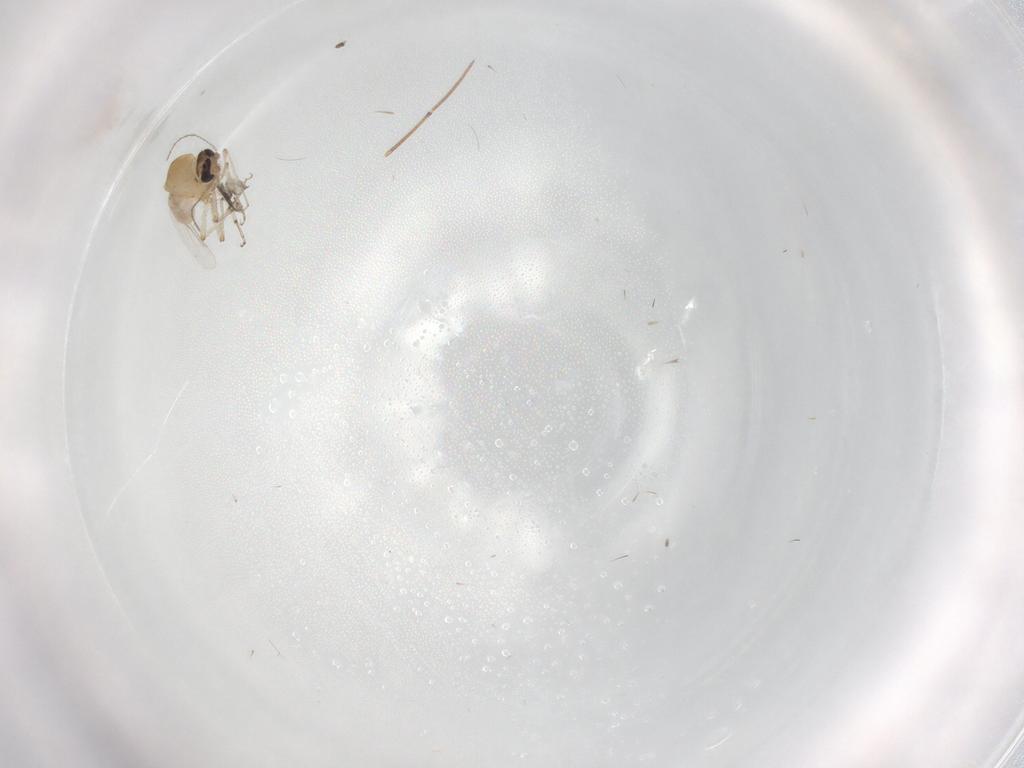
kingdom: Animalia
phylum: Arthropoda
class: Insecta
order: Diptera
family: Ceratopogonidae
